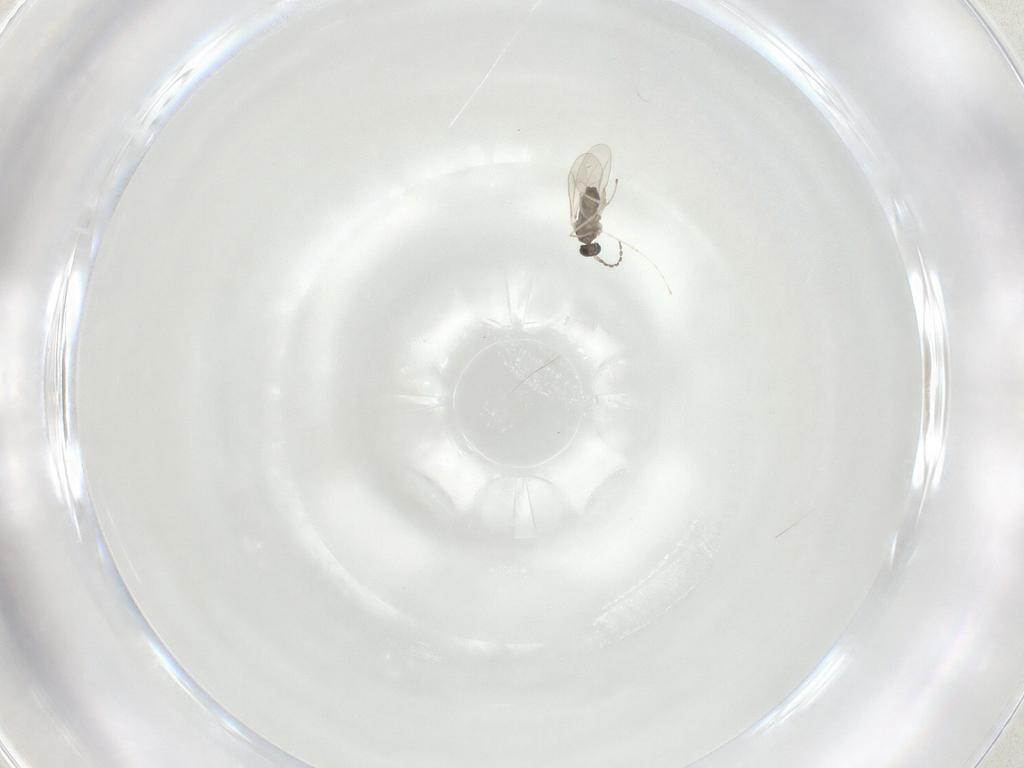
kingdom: Animalia
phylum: Arthropoda
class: Insecta
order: Diptera
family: Cecidomyiidae
